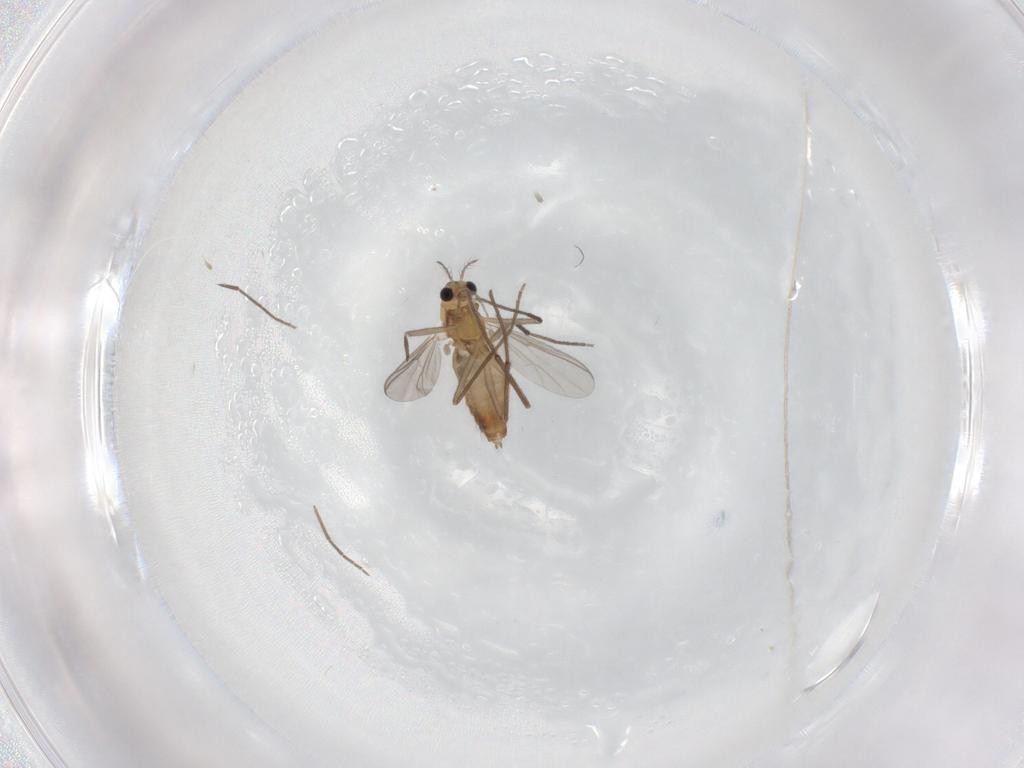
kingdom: Animalia
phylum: Arthropoda
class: Insecta
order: Diptera
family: Chironomidae
